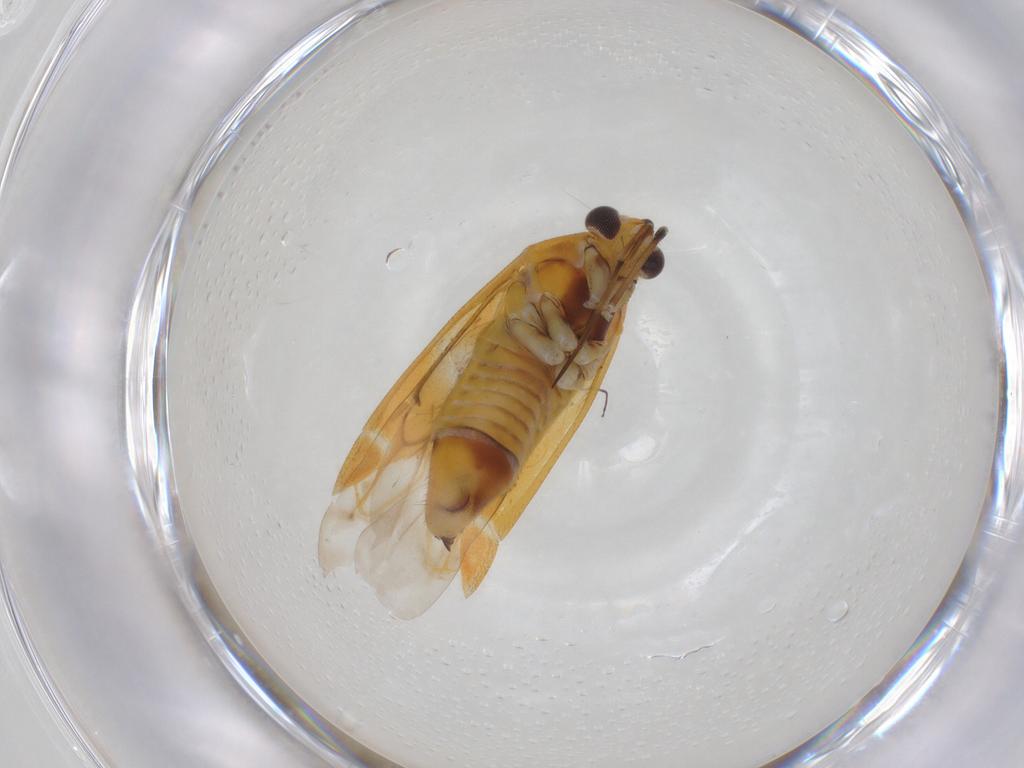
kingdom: Animalia
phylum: Arthropoda
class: Insecta
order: Hemiptera
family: Miridae
